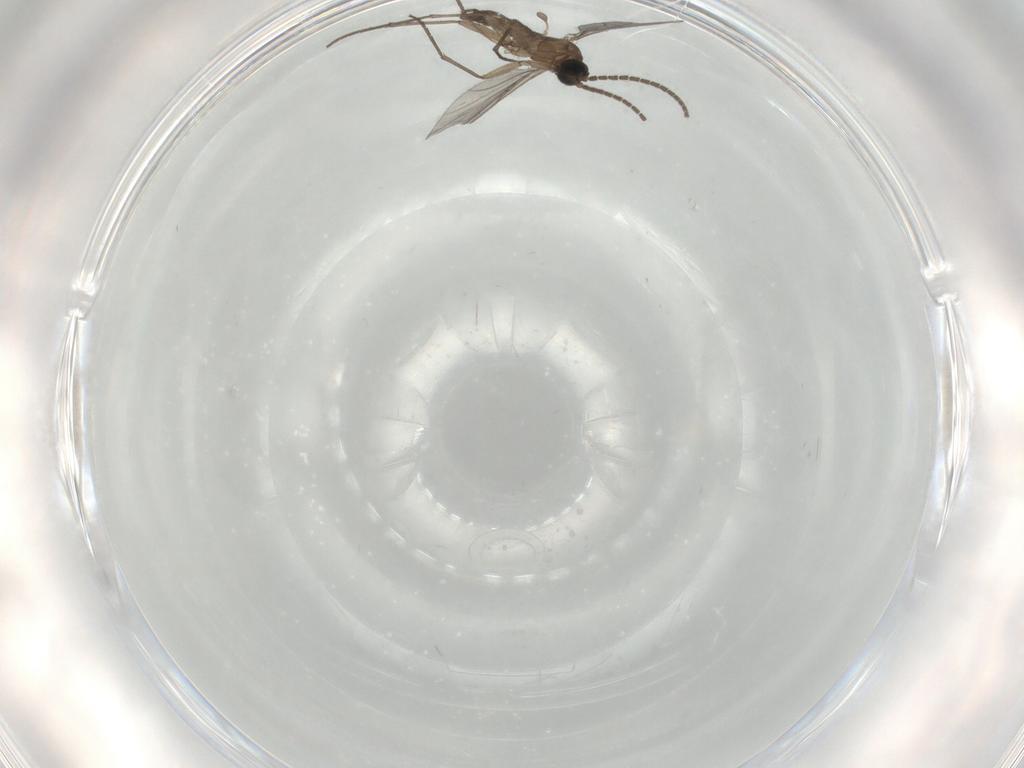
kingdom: Animalia
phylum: Arthropoda
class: Insecta
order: Diptera
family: Sciaridae
